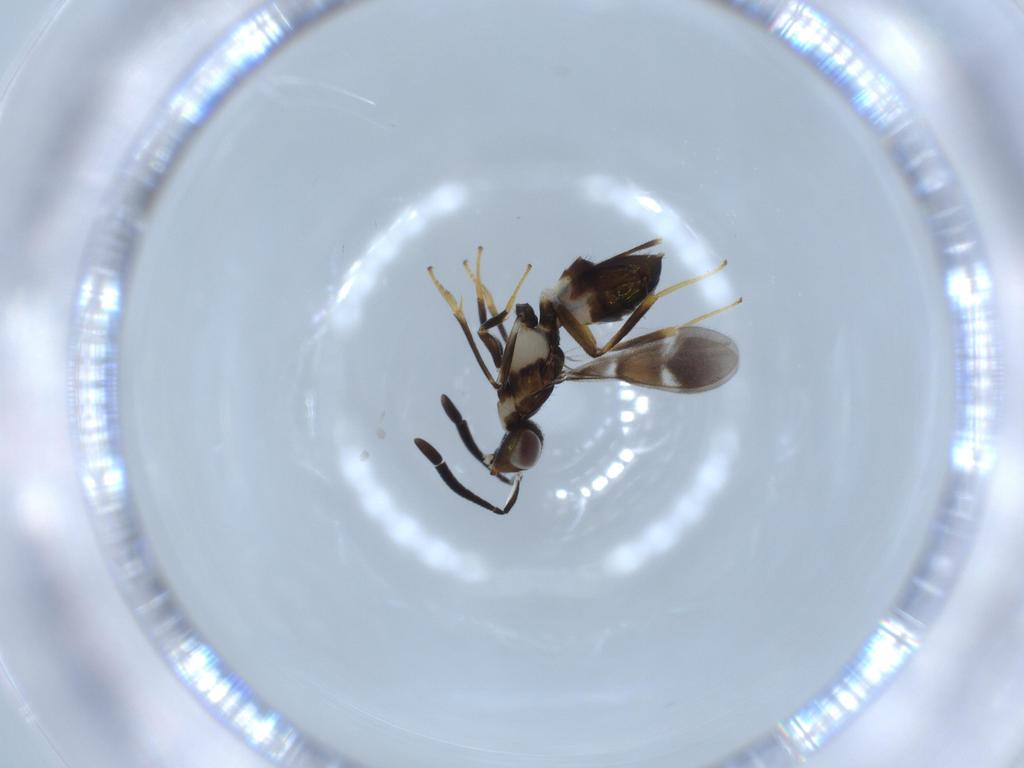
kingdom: Animalia
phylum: Arthropoda
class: Insecta
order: Hymenoptera
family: Eupelmidae
